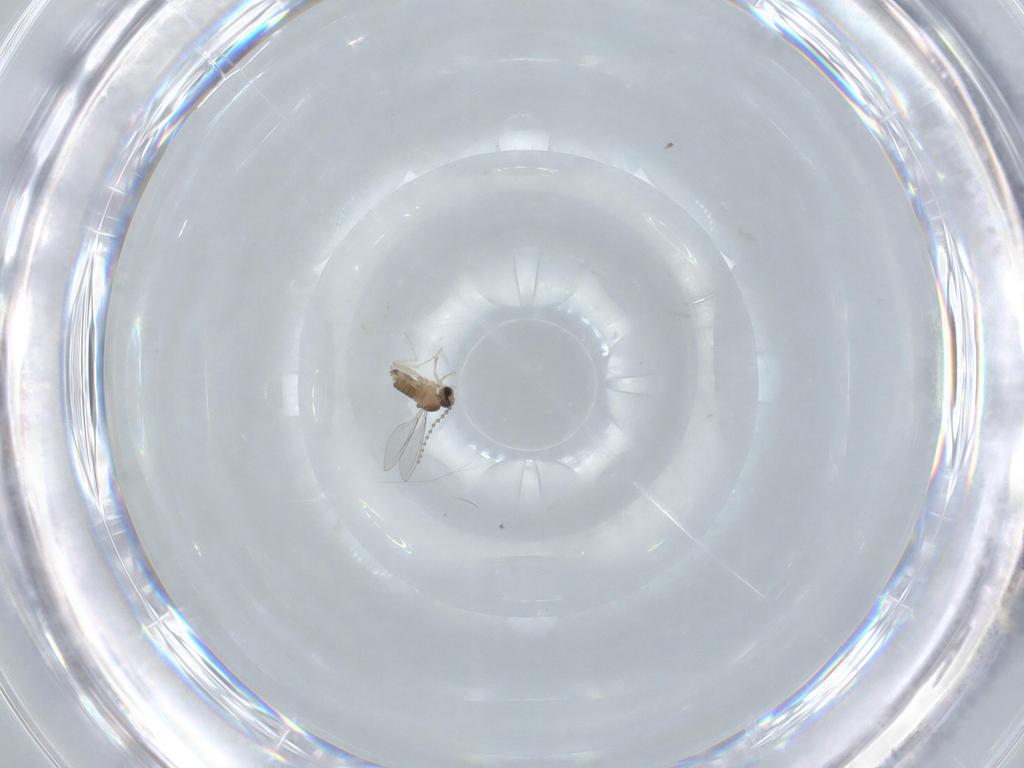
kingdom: Animalia
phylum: Arthropoda
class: Insecta
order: Diptera
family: Cecidomyiidae
